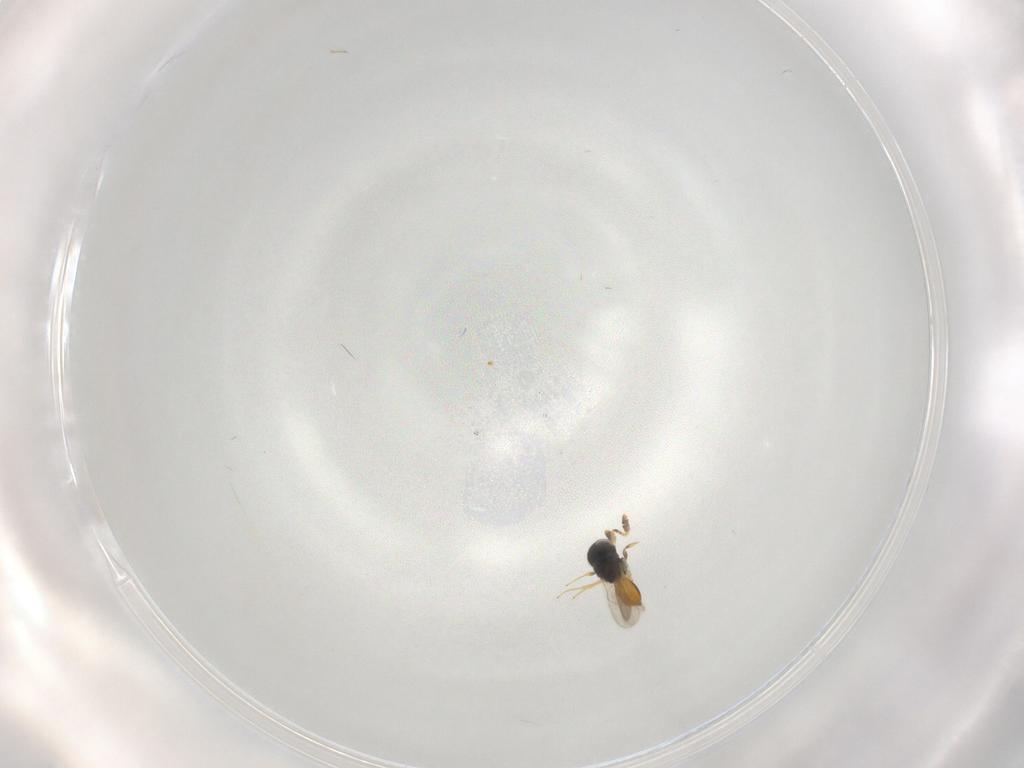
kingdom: Animalia
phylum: Arthropoda
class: Insecta
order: Hymenoptera
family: Scelionidae
